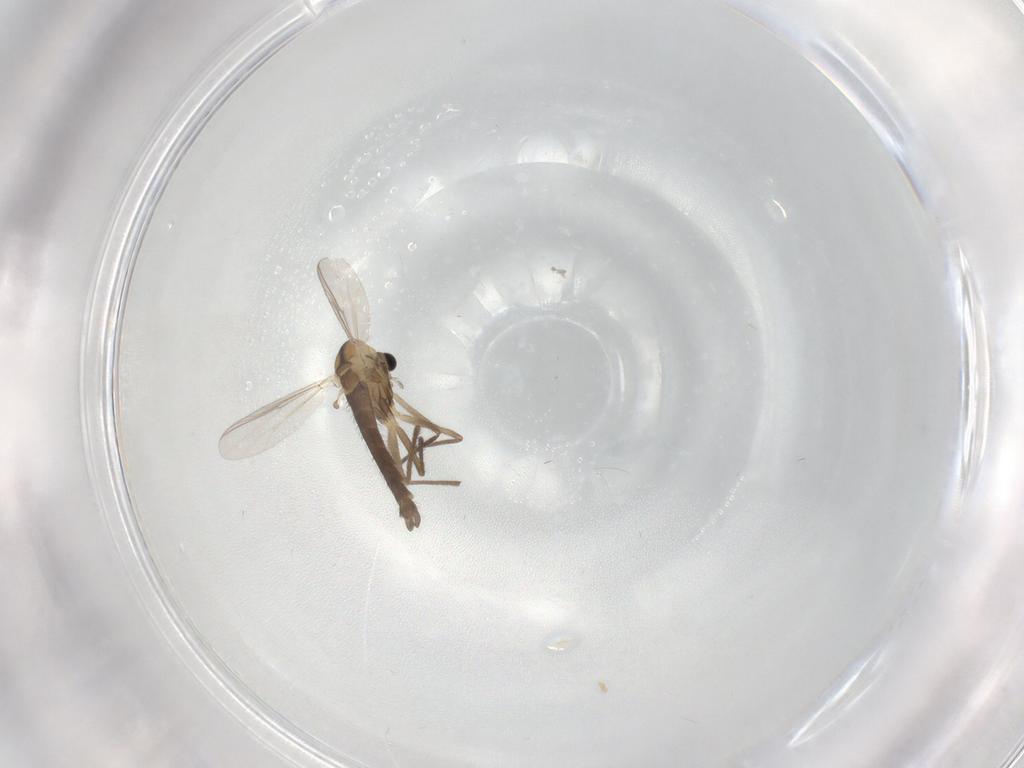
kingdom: Animalia
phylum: Arthropoda
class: Insecta
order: Diptera
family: Chironomidae
